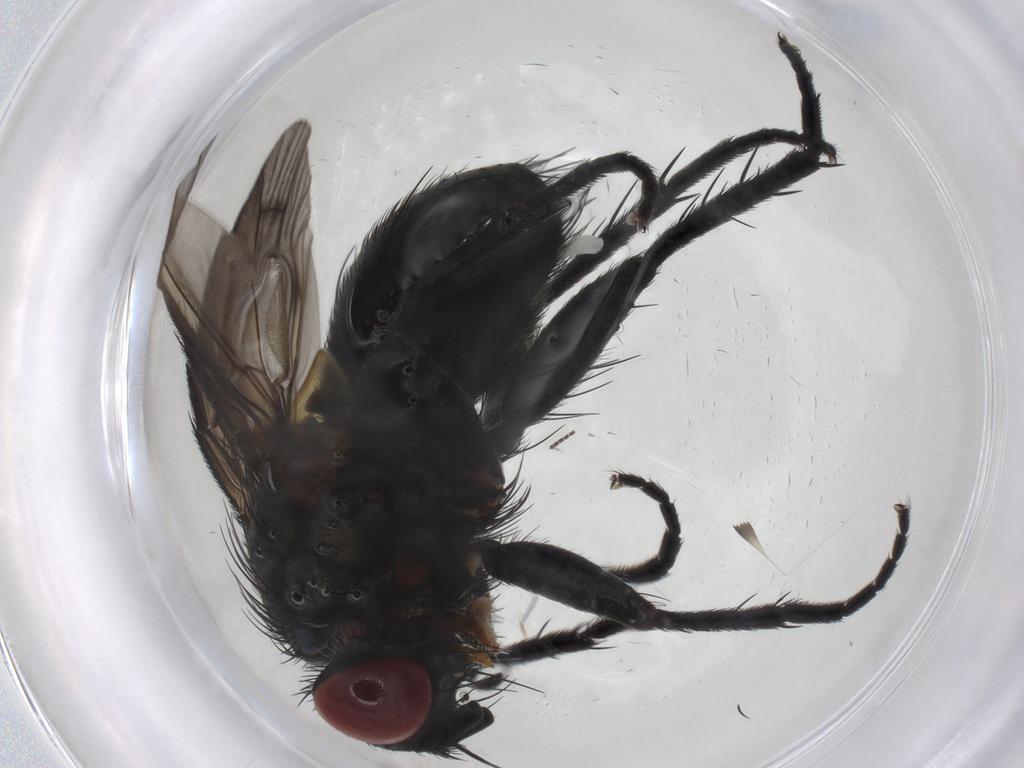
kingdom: Animalia
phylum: Arthropoda
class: Insecta
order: Diptera
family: Tachinidae
